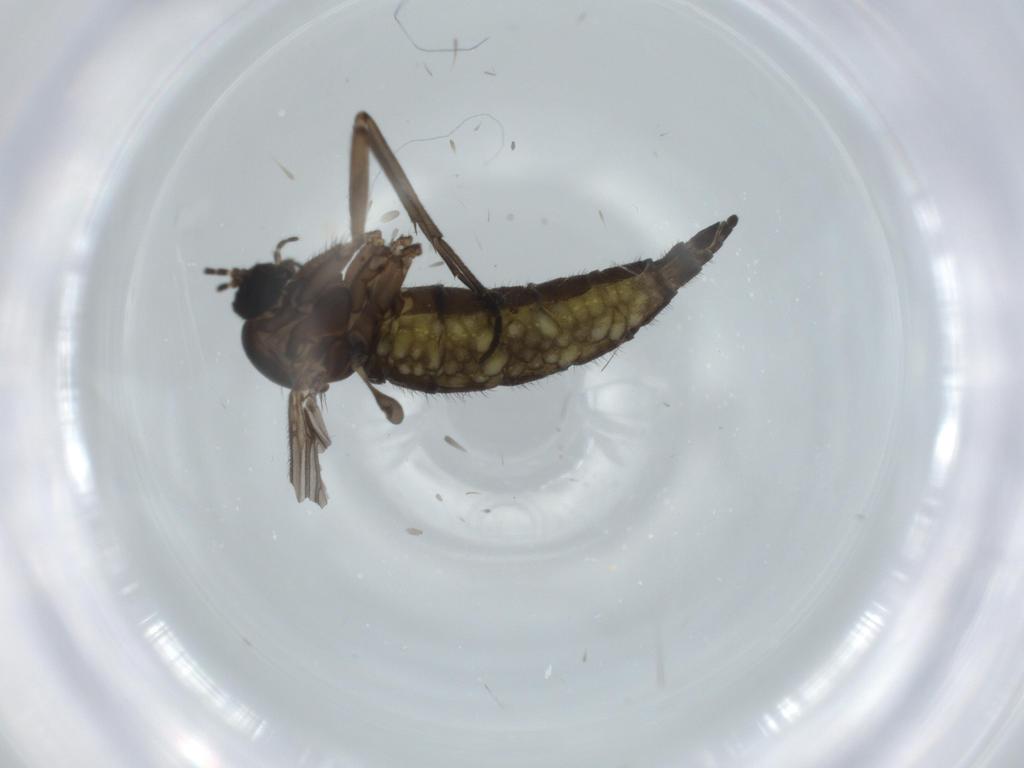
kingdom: Animalia
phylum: Arthropoda
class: Insecta
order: Diptera
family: Sciaridae
